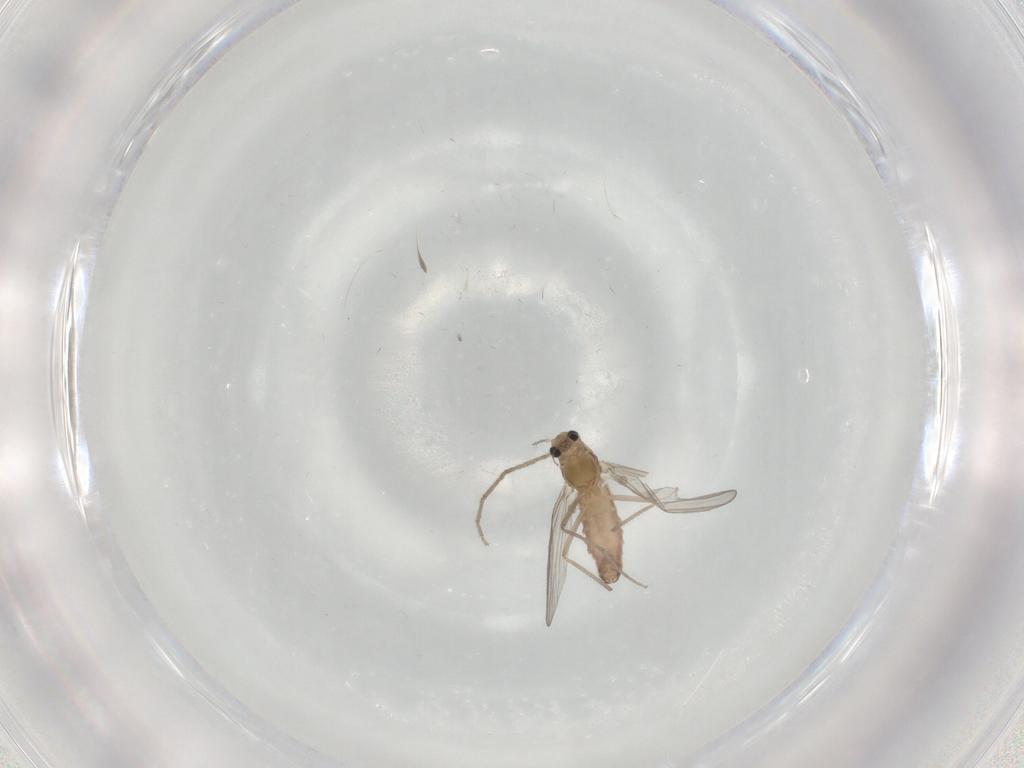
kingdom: Animalia
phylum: Arthropoda
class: Insecta
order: Diptera
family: Chironomidae
